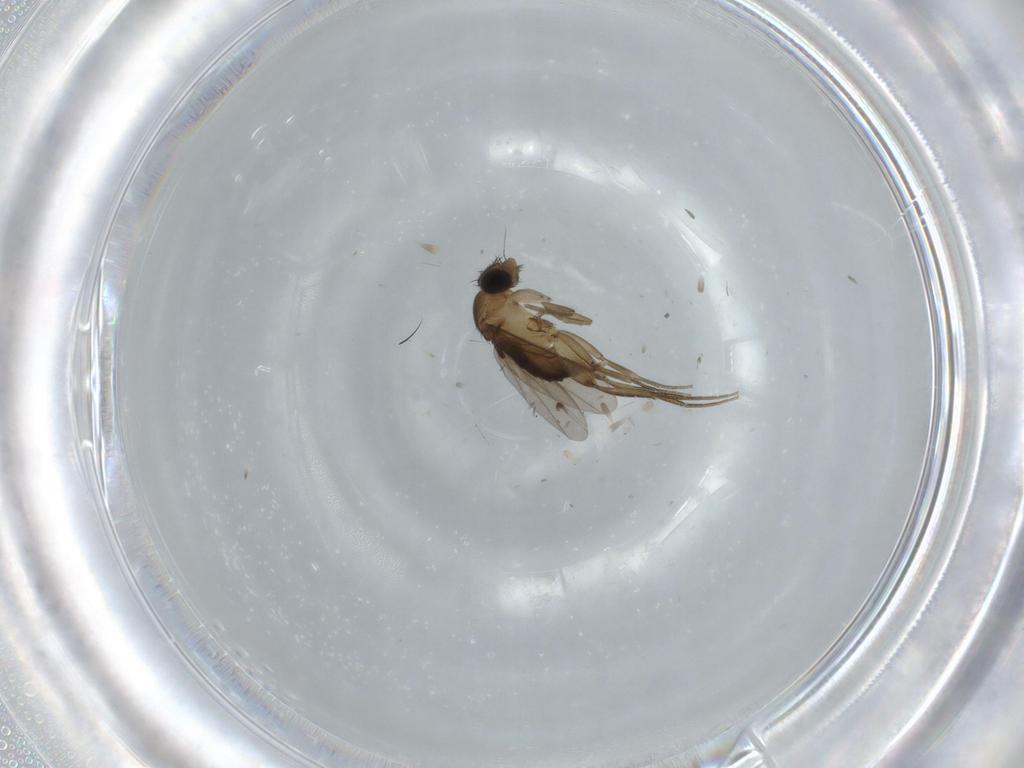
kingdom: Animalia
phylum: Arthropoda
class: Insecta
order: Diptera
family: Phoridae
